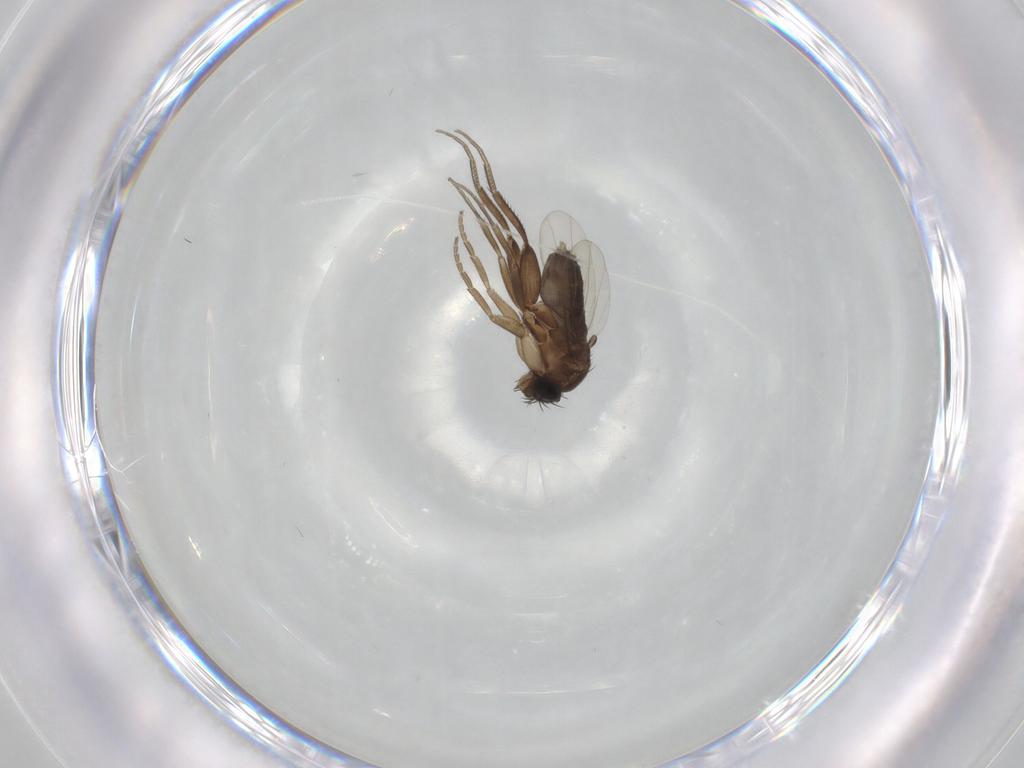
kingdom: Animalia
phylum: Arthropoda
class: Insecta
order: Diptera
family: Phoridae
